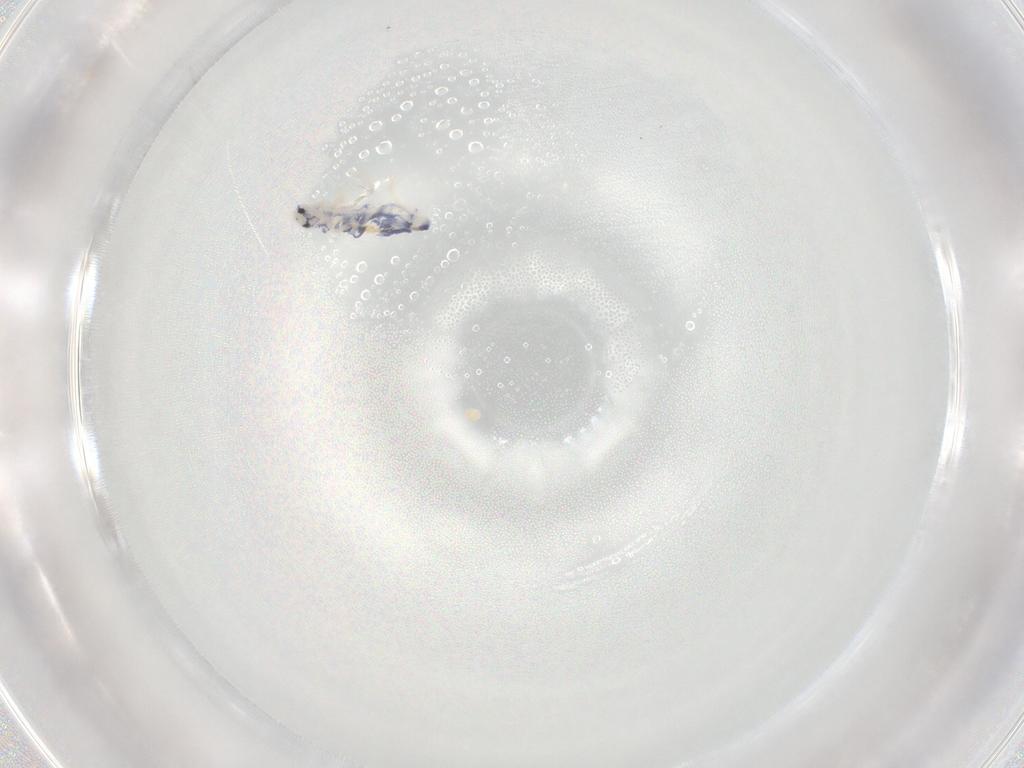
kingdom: Animalia
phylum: Arthropoda
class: Collembola
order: Entomobryomorpha
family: Entomobryidae
